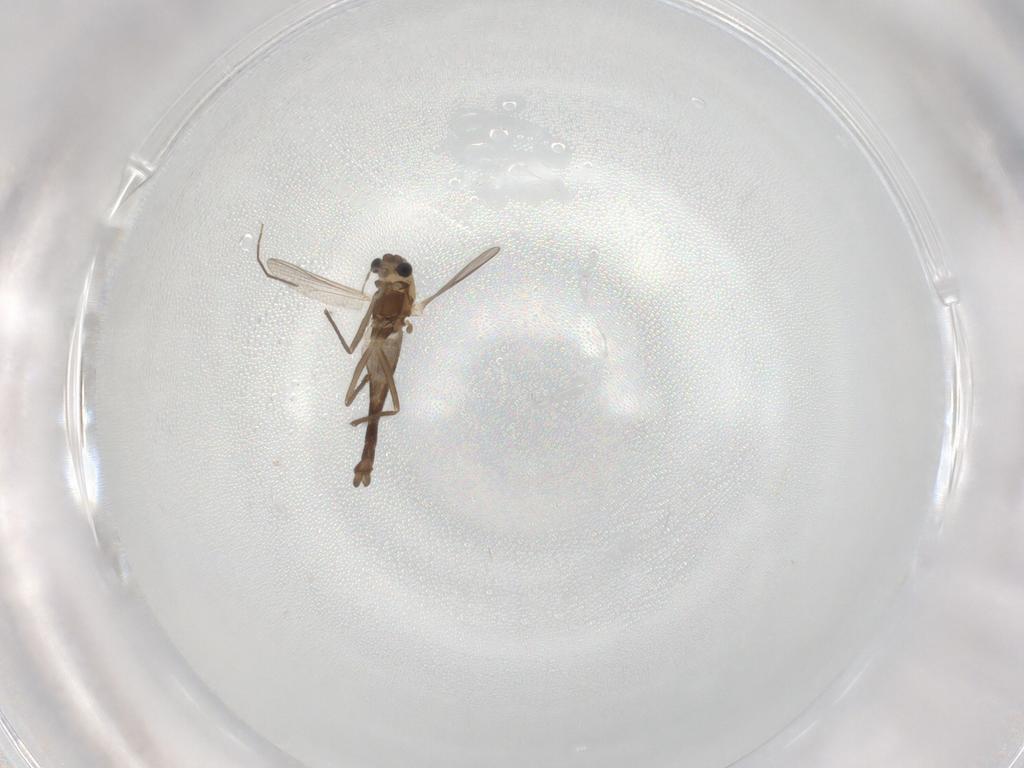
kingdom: Animalia
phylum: Arthropoda
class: Insecta
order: Diptera
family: Chironomidae
